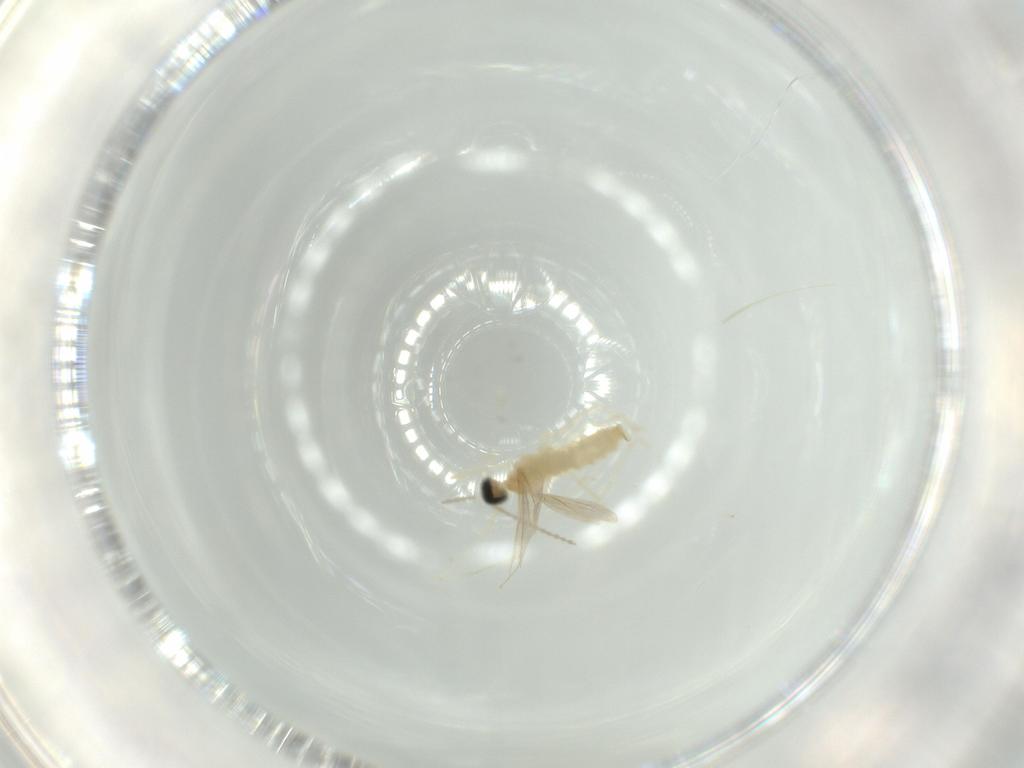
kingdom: Animalia
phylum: Arthropoda
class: Insecta
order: Diptera
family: Cecidomyiidae
